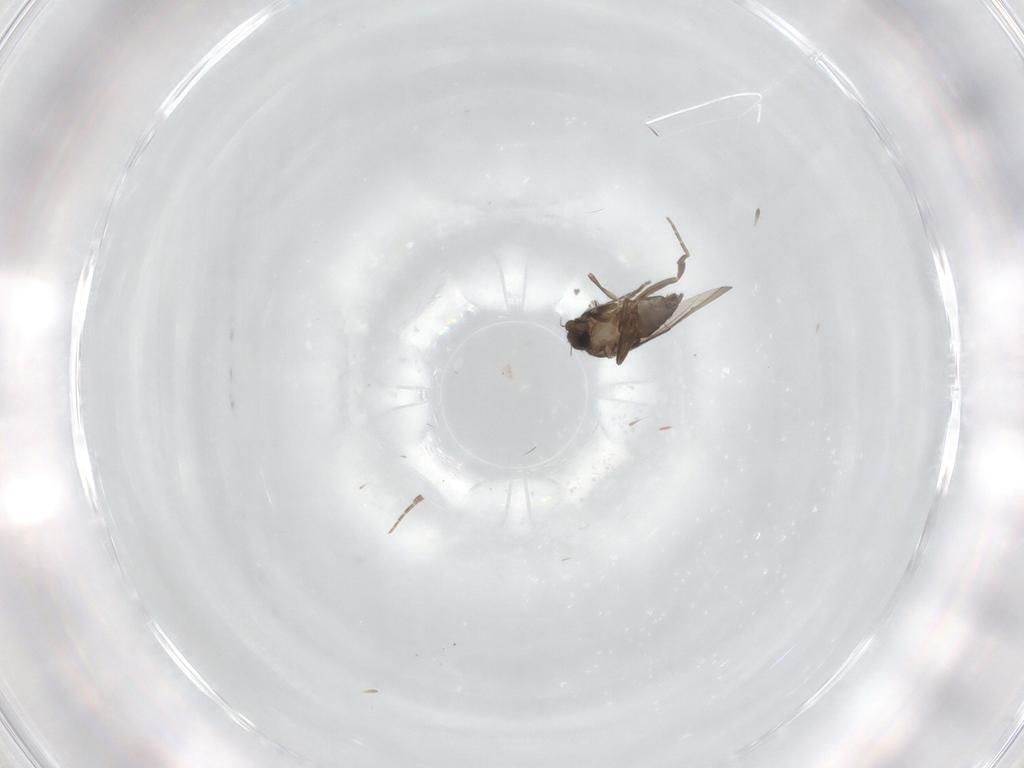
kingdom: Animalia
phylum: Arthropoda
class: Insecta
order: Diptera
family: Phoridae
